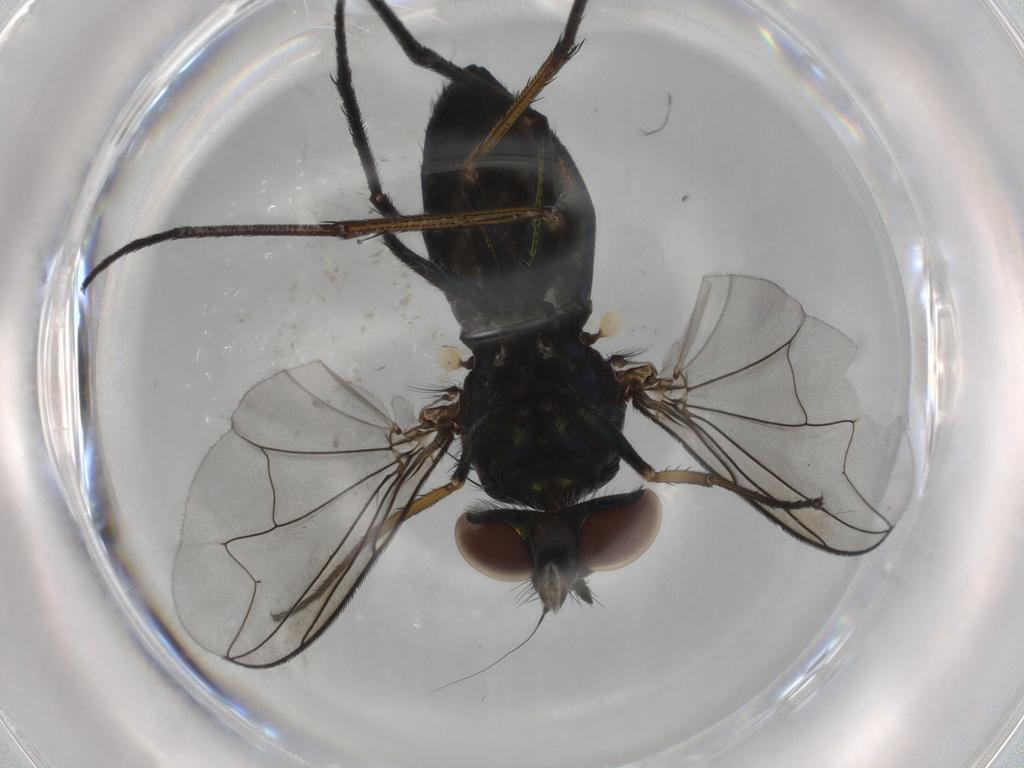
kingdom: Animalia
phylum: Arthropoda
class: Insecta
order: Diptera
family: Dolichopodidae
